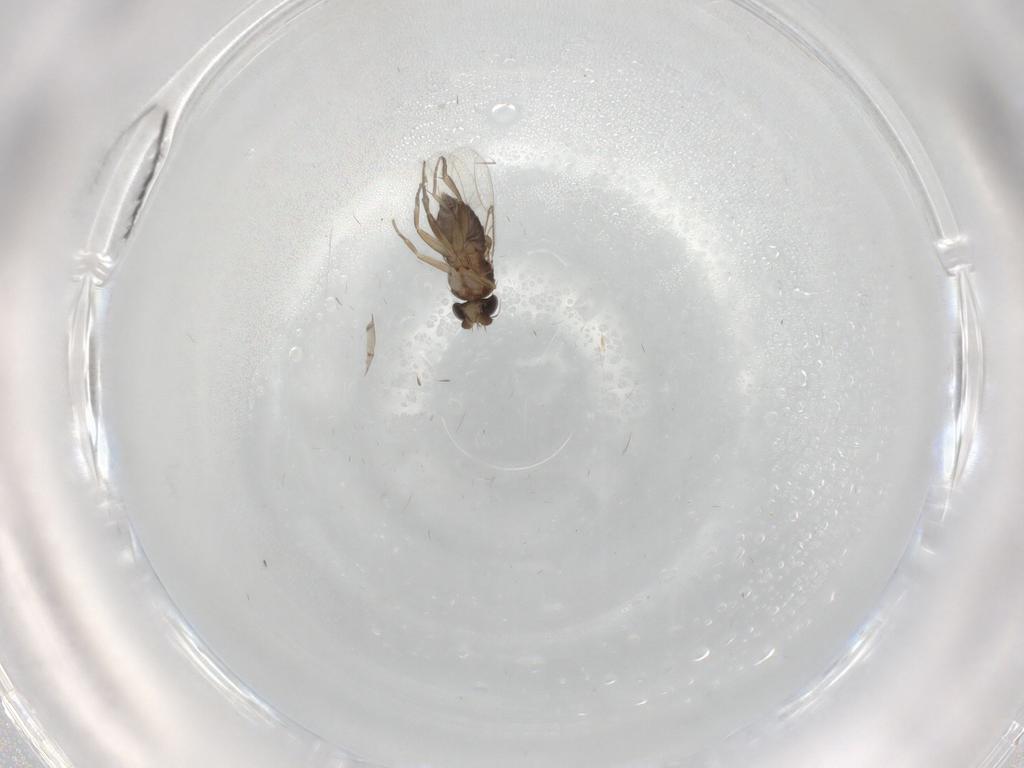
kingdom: Animalia
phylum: Arthropoda
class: Insecta
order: Diptera
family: Phoridae
